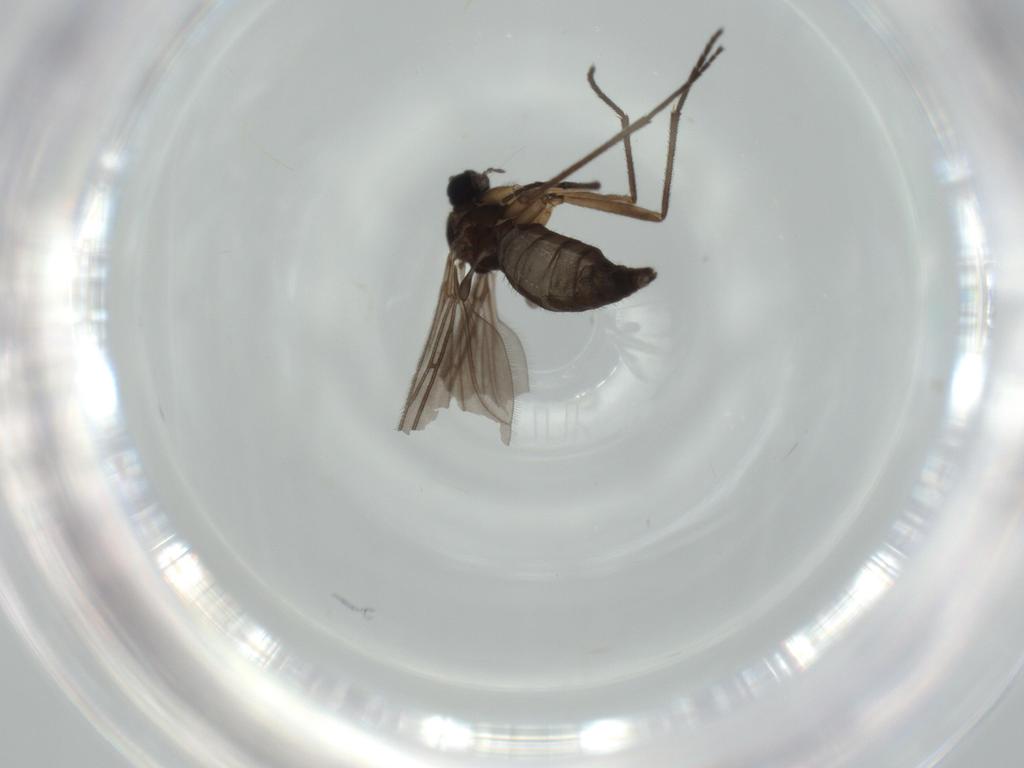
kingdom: Animalia
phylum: Arthropoda
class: Insecta
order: Diptera
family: Sciaridae
